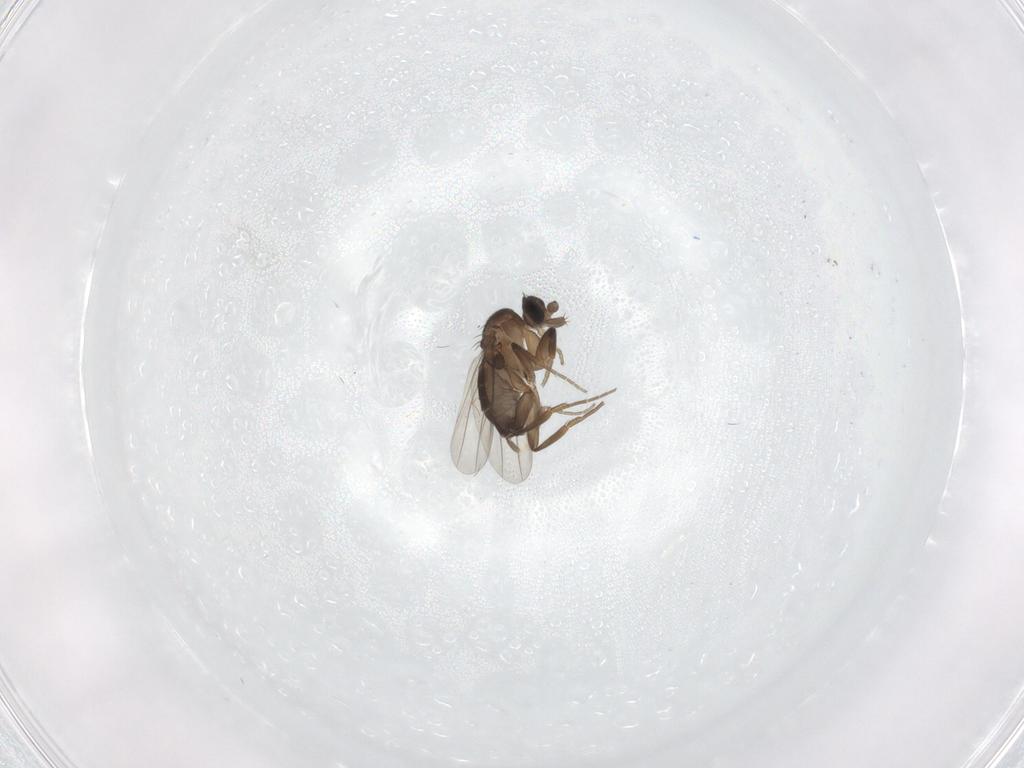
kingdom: Animalia
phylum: Arthropoda
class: Insecta
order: Diptera
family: Phoridae
